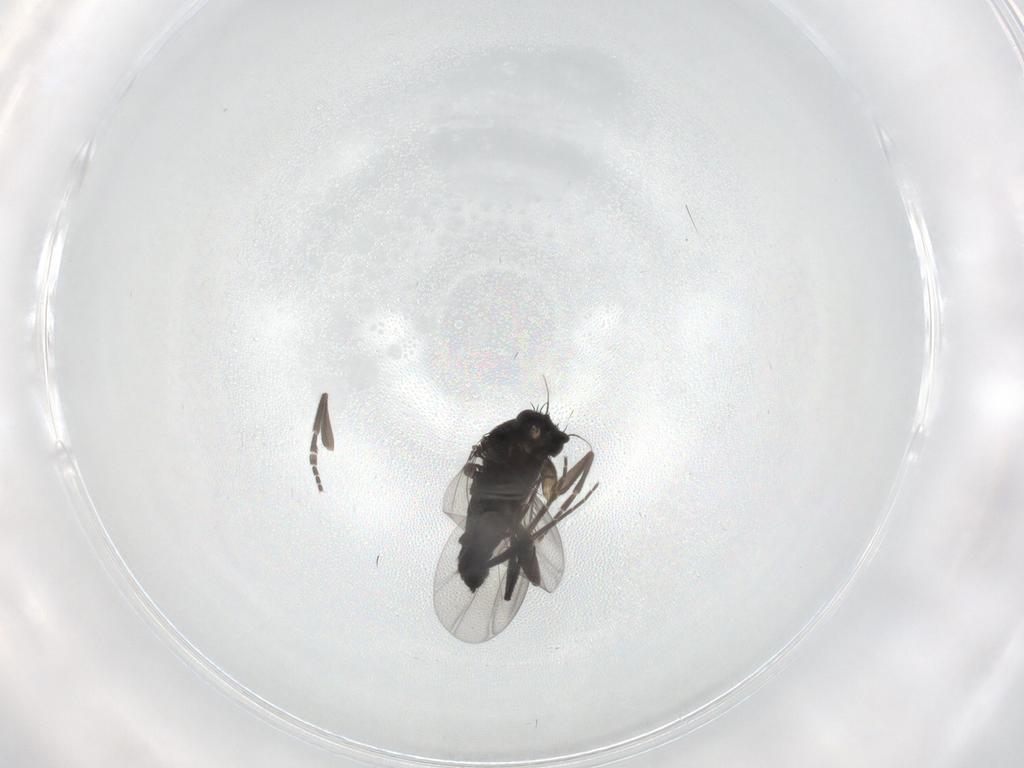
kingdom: Animalia
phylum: Arthropoda
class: Insecta
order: Diptera
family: Phoridae
